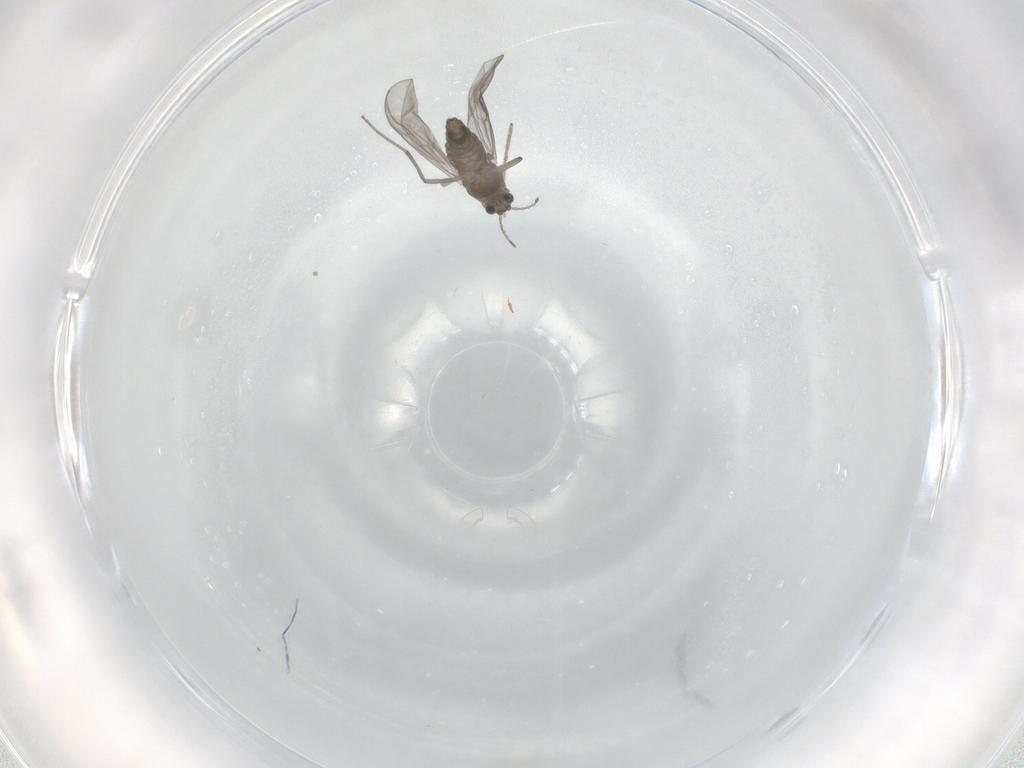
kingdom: Animalia
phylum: Arthropoda
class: Insecta
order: Diptera
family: Chironomidae
